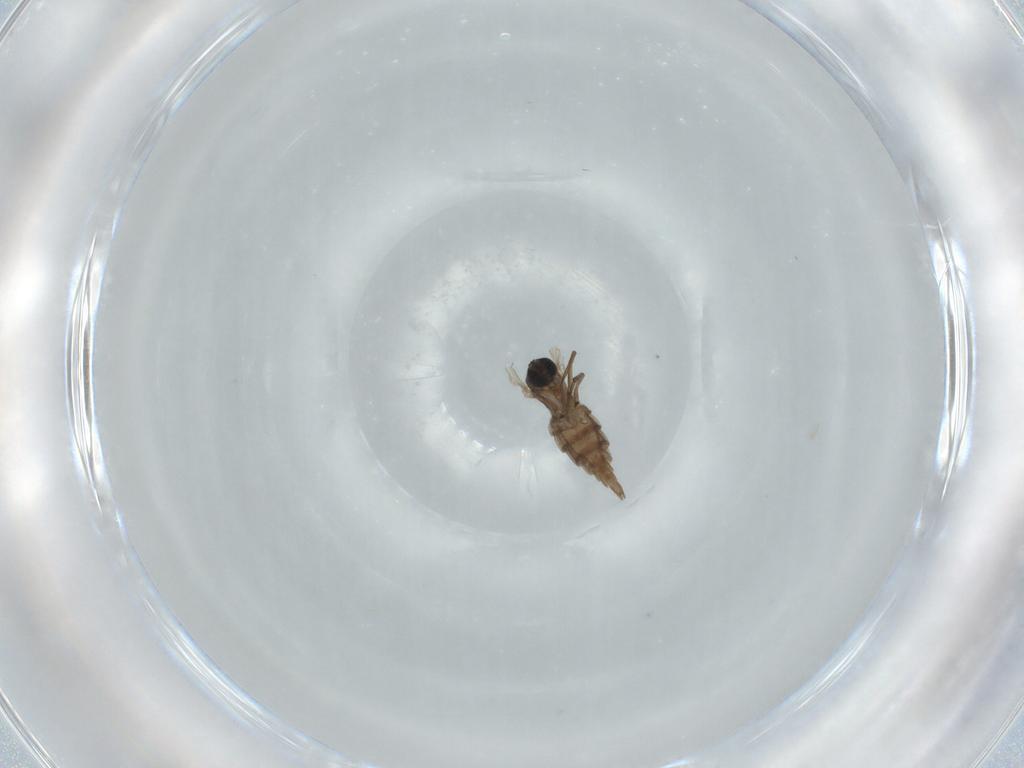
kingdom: Animalia
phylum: Arthropoda
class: Insecta
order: Diptera
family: Sciaridae
